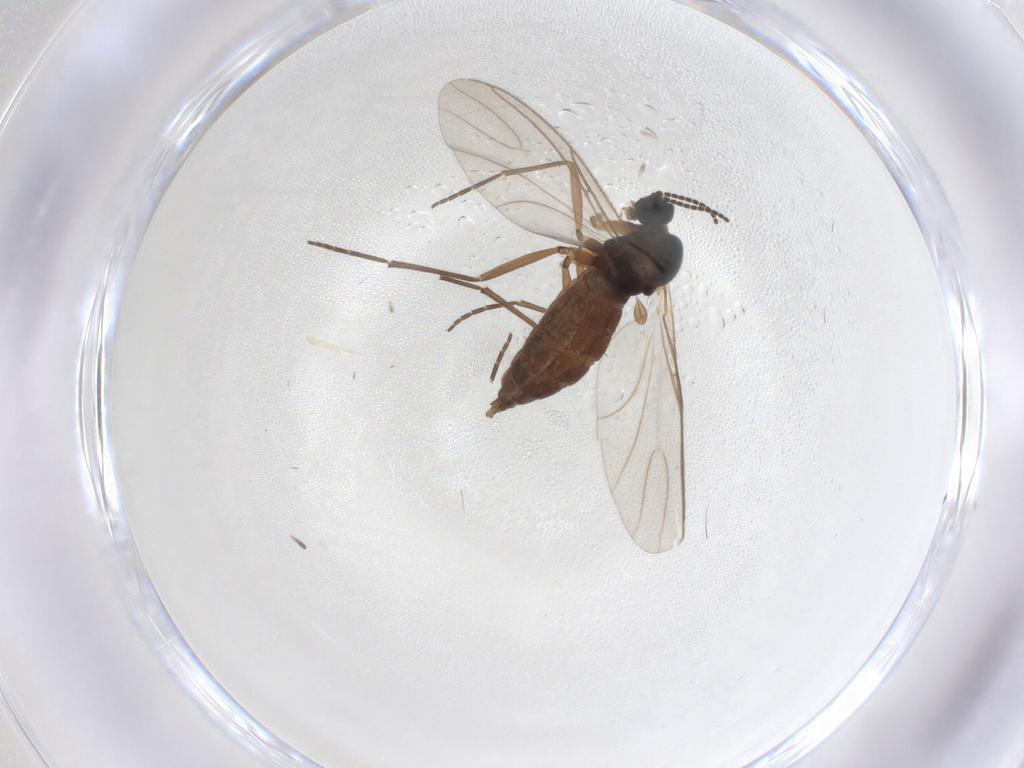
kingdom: Animalia
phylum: Arthropoda
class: Insecta
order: Diptera
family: Sciaridae
